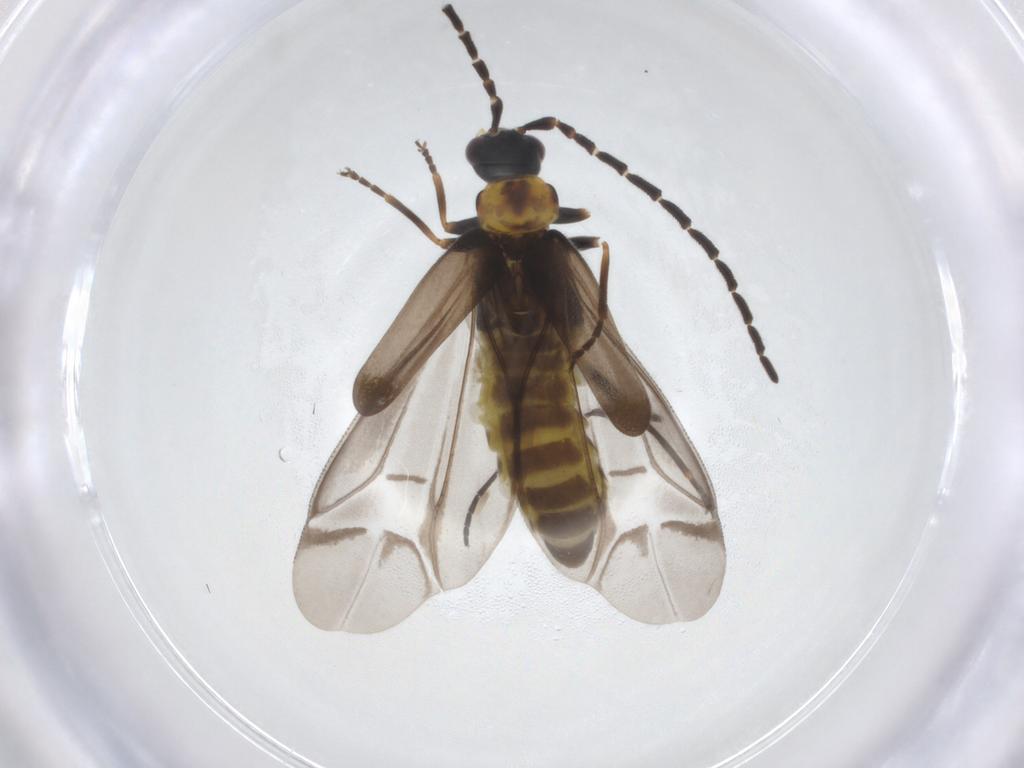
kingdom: Animalia
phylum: Arthropoda
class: Insecta
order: Coleoptera
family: Cantharidae
